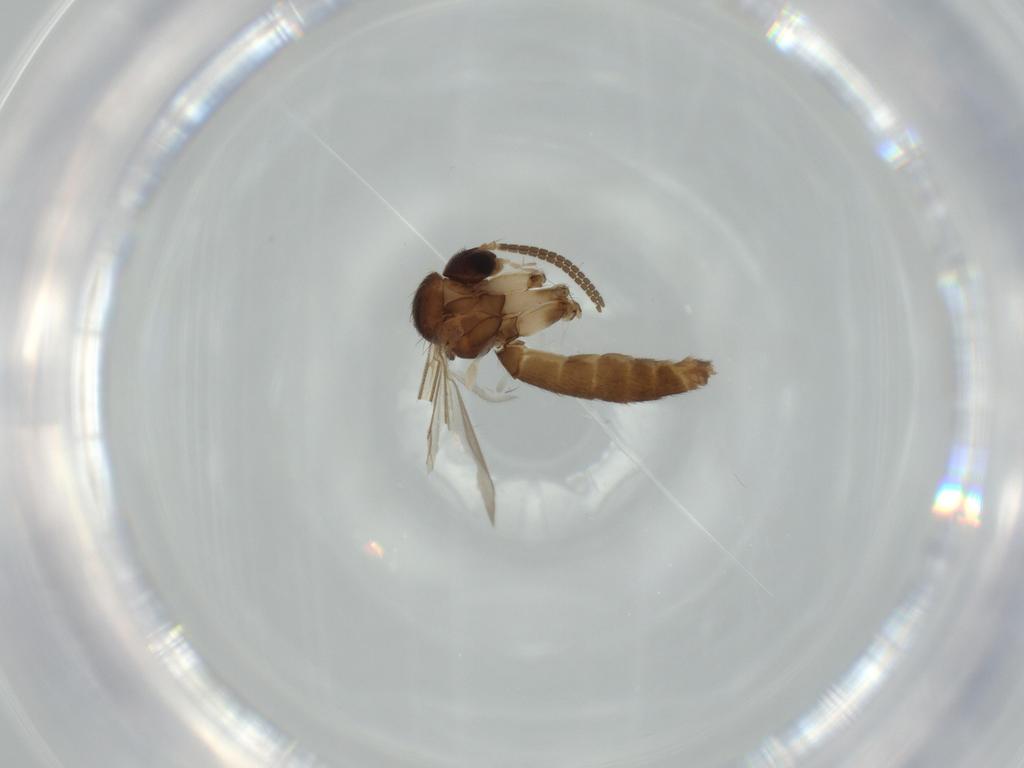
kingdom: Animalia
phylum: Arthropoda
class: Insecta
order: Diptera
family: Mycetophilidae
